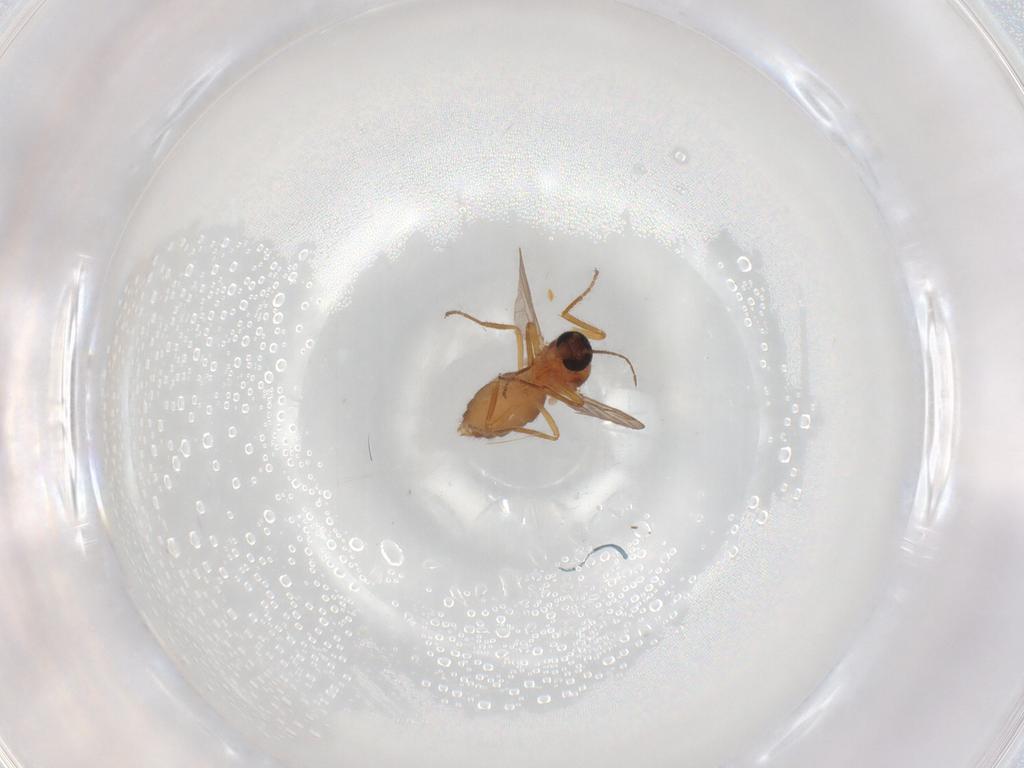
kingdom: Animalia
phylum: Arthropoda
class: Insecta
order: Diptera
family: Ceratopogonidae
